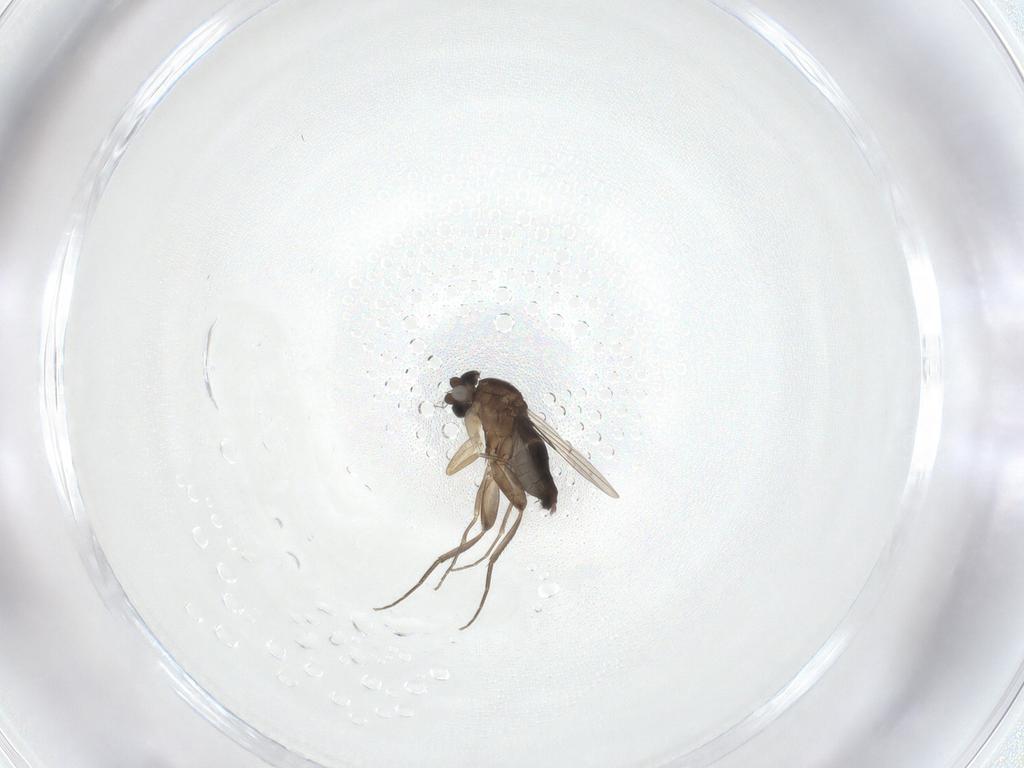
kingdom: Animalia
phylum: Arthropoda
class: Insecta
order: Diptera
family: Phoridae
